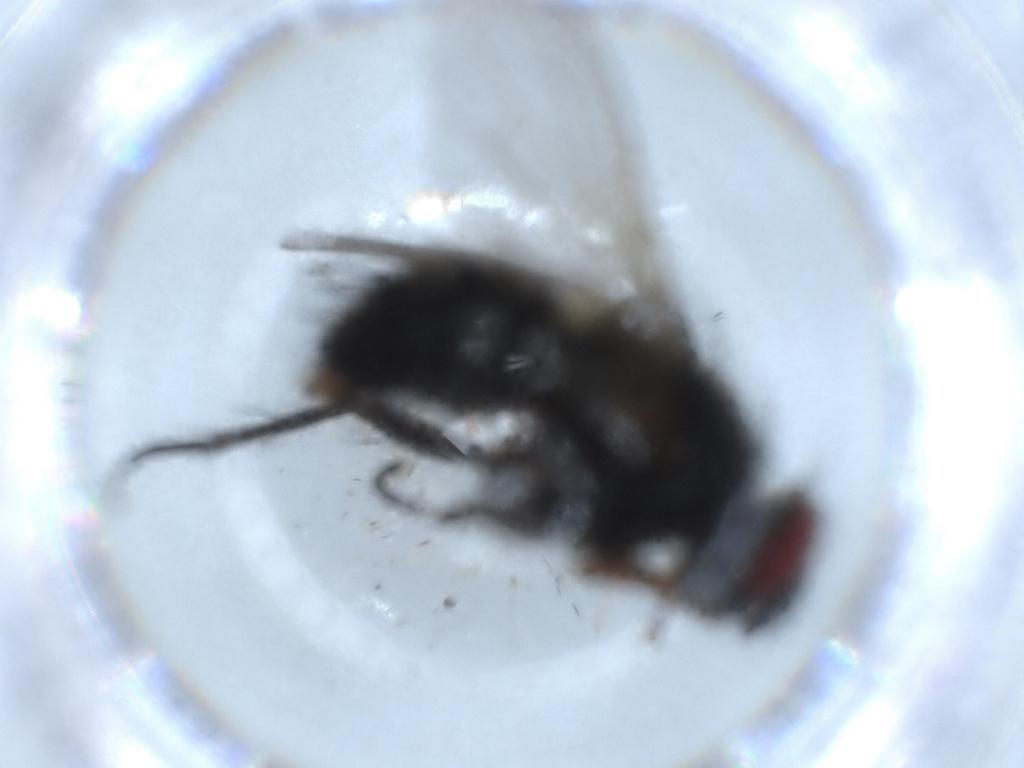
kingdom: Animalia
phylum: Arthropoda
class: Insecta
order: Diptera
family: Tachinidae
